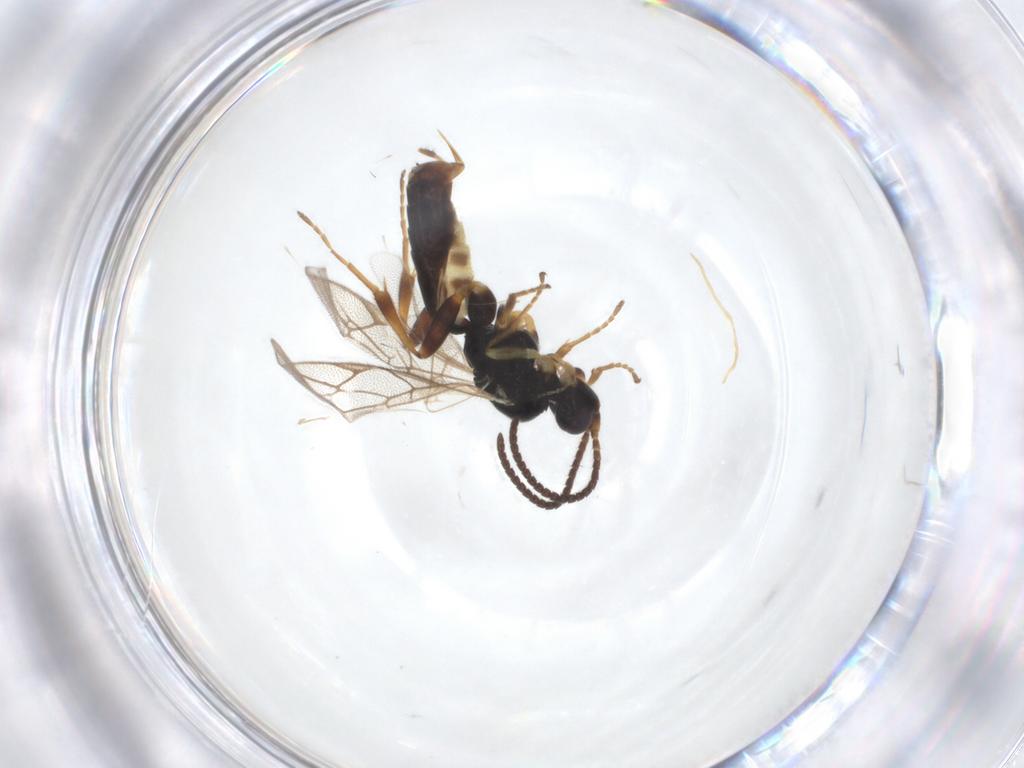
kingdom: Animalia
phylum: Arthropoda
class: Insecta
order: Hymenoptera
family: Ichneumonidae
